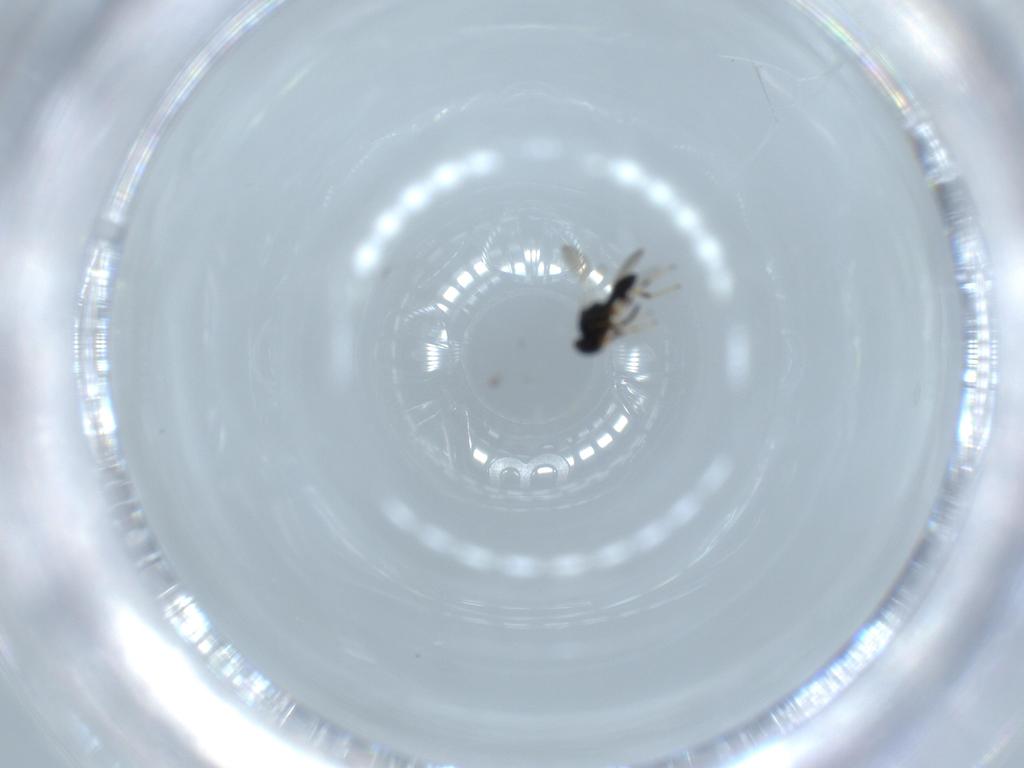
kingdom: Animalia
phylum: Arthropoda
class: Insecta
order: Hymenoptera
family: Platygastridae
